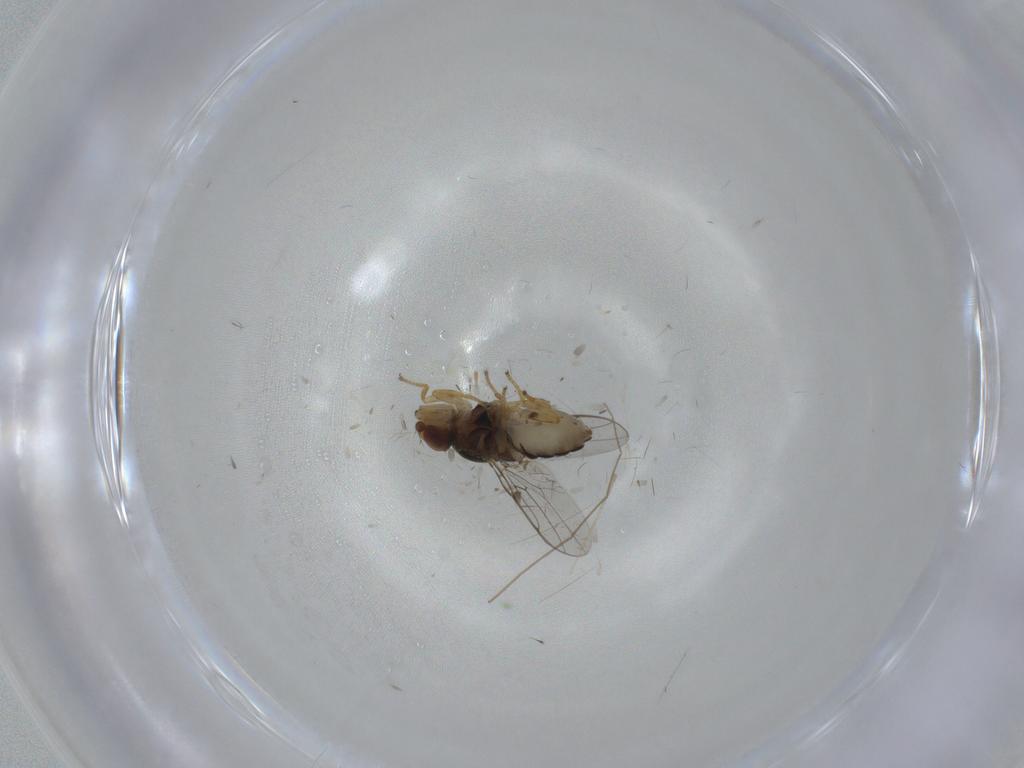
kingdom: Animalia
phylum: Arthropoda
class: Insecta
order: Diptera
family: Chloropidae
